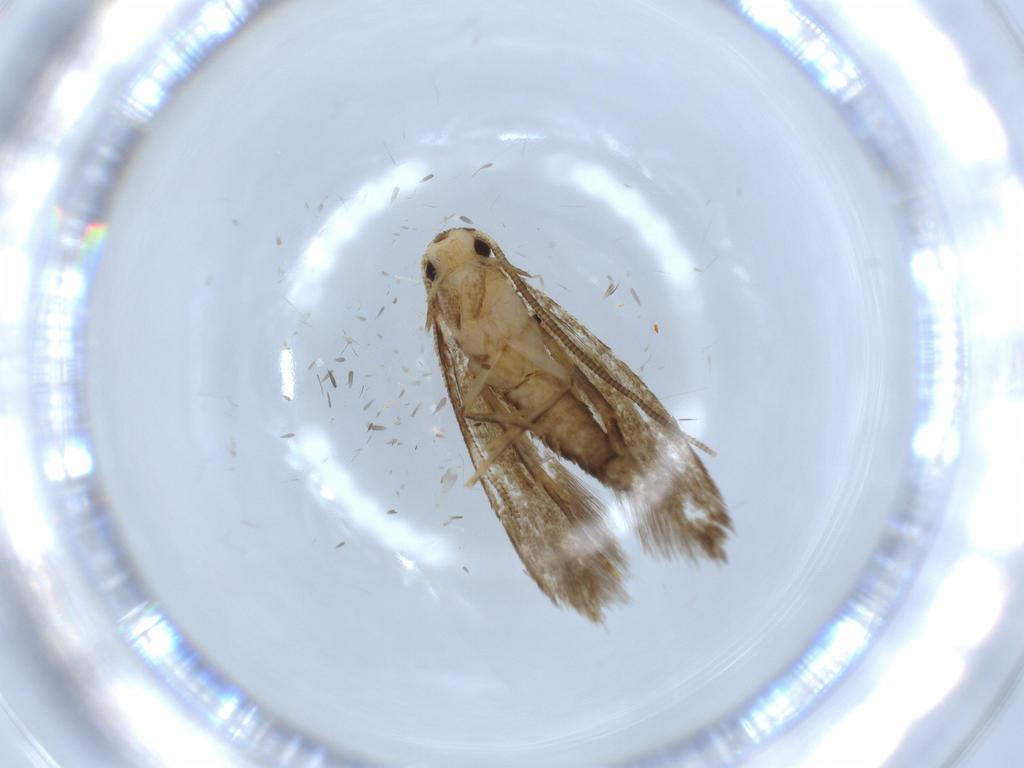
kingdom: Animalia
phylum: Arthropoda
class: Insecta
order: Lepidoptera
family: Tineidae
